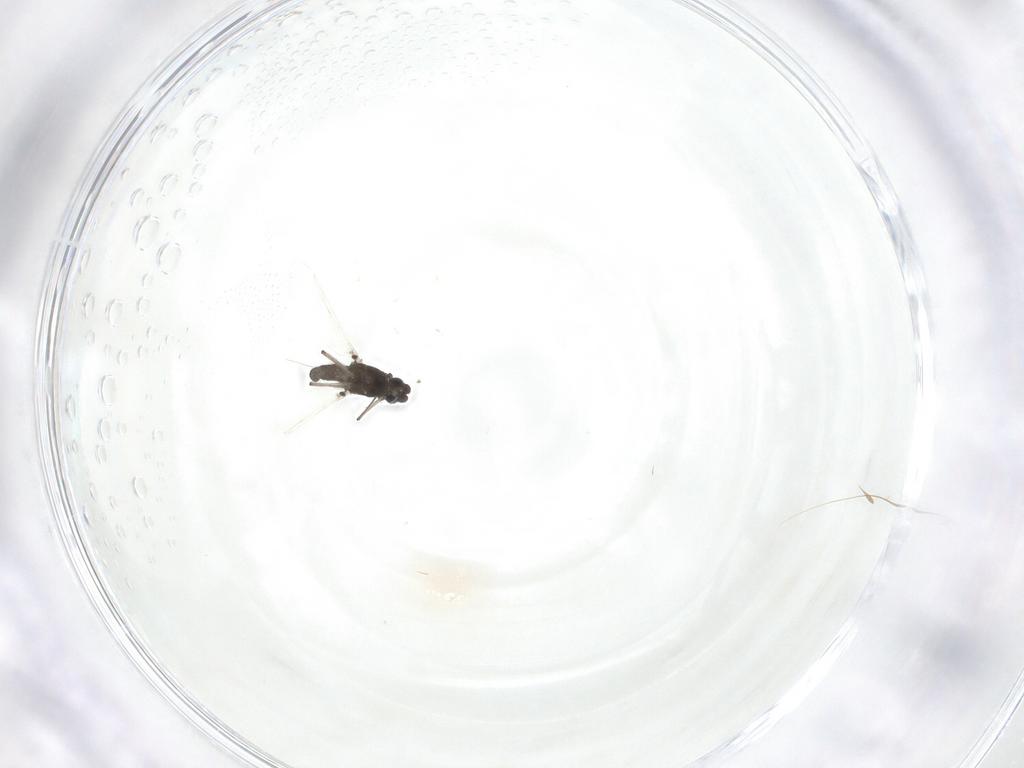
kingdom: Animalia
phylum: Arthropoda
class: Insecta
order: Diptera
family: Chironomidae
